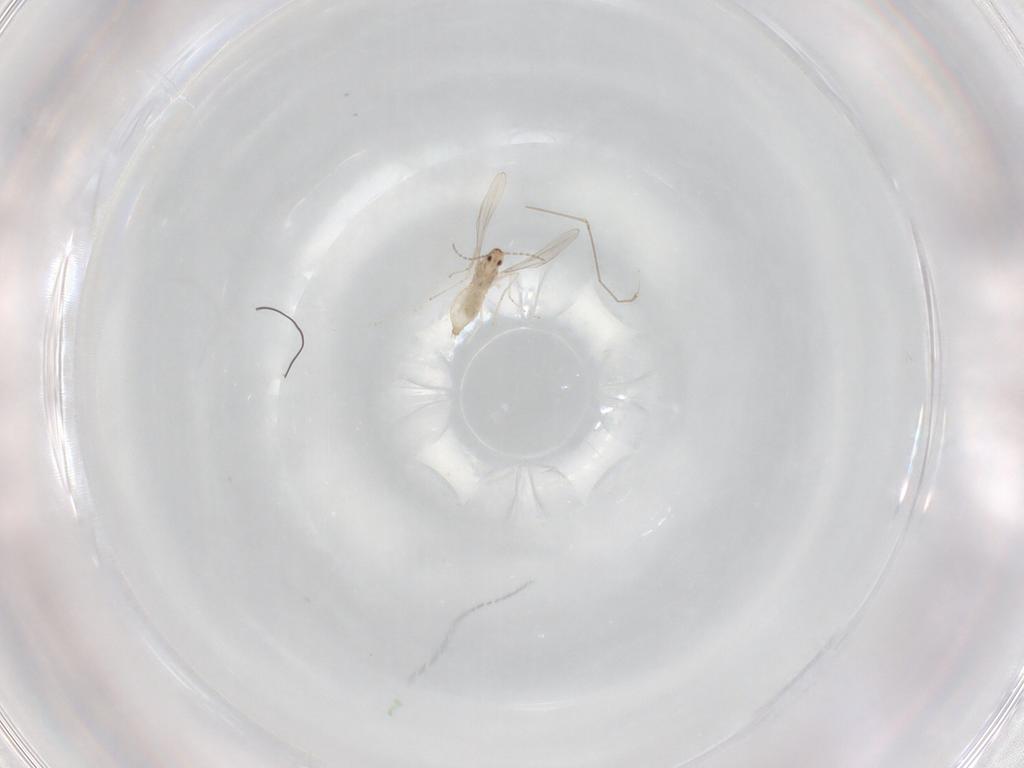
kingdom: Animalia
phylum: Arthropoda
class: Insecta
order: Diptera
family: Cecidomyiidae
